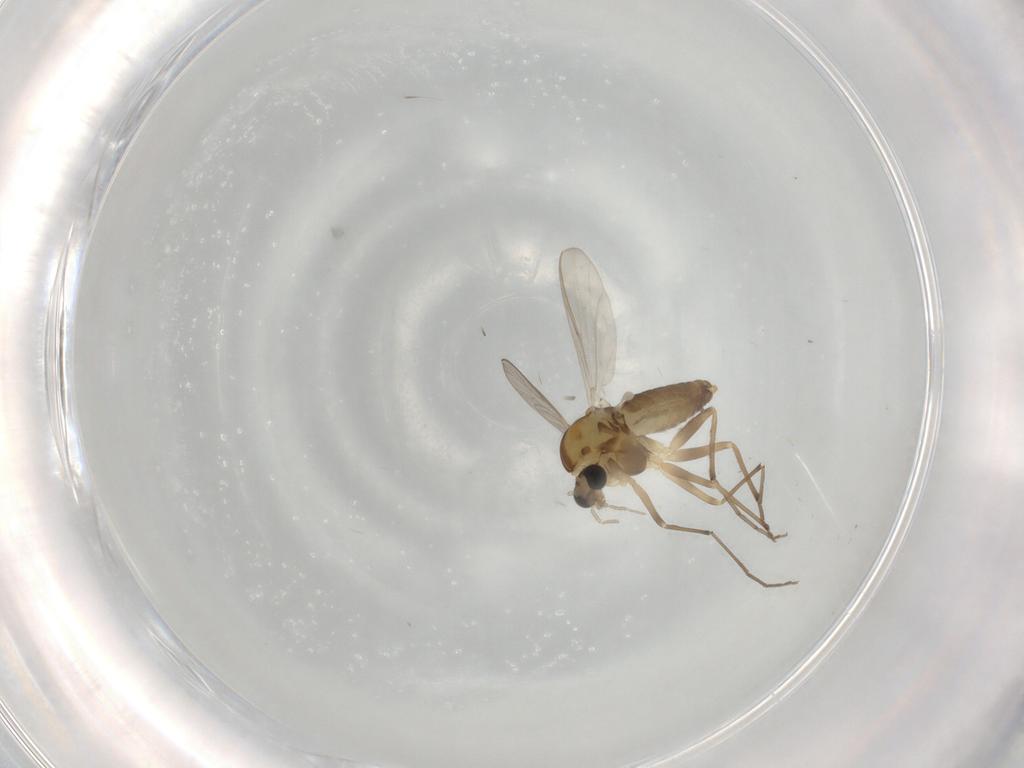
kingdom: Animalia
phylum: Arthropoda
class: Insecta
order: Diptera
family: Chironomidae
